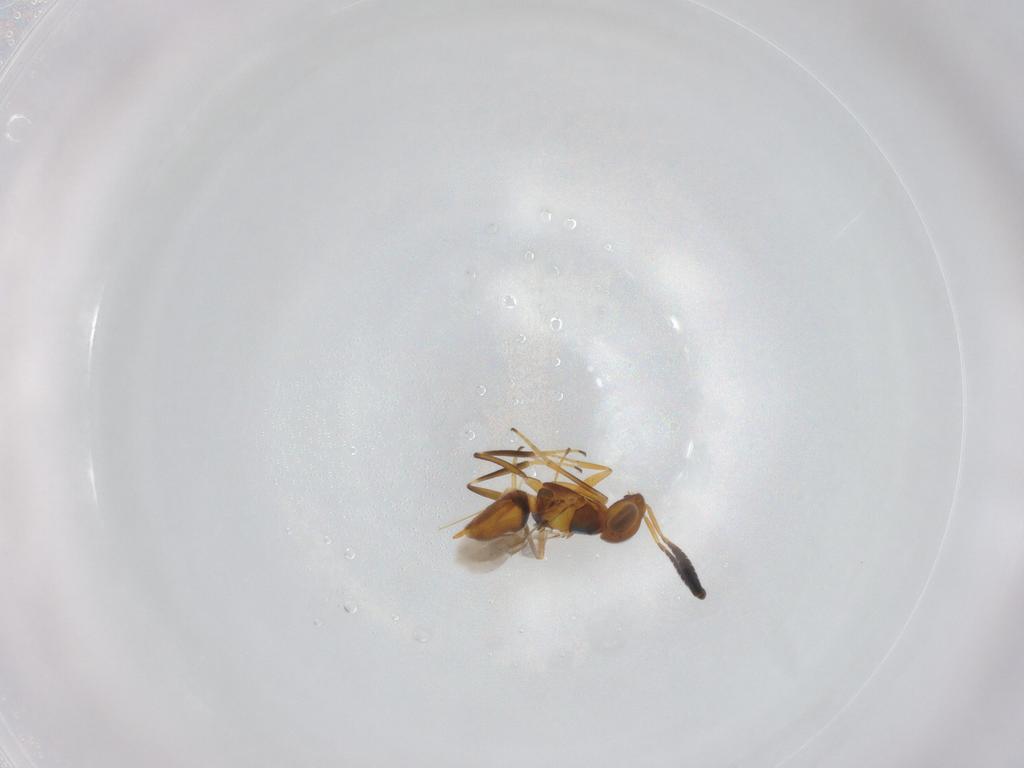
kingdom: Animalia
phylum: Arthropoda
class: Insecta
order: Hymenoptera
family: Encyrtidae
